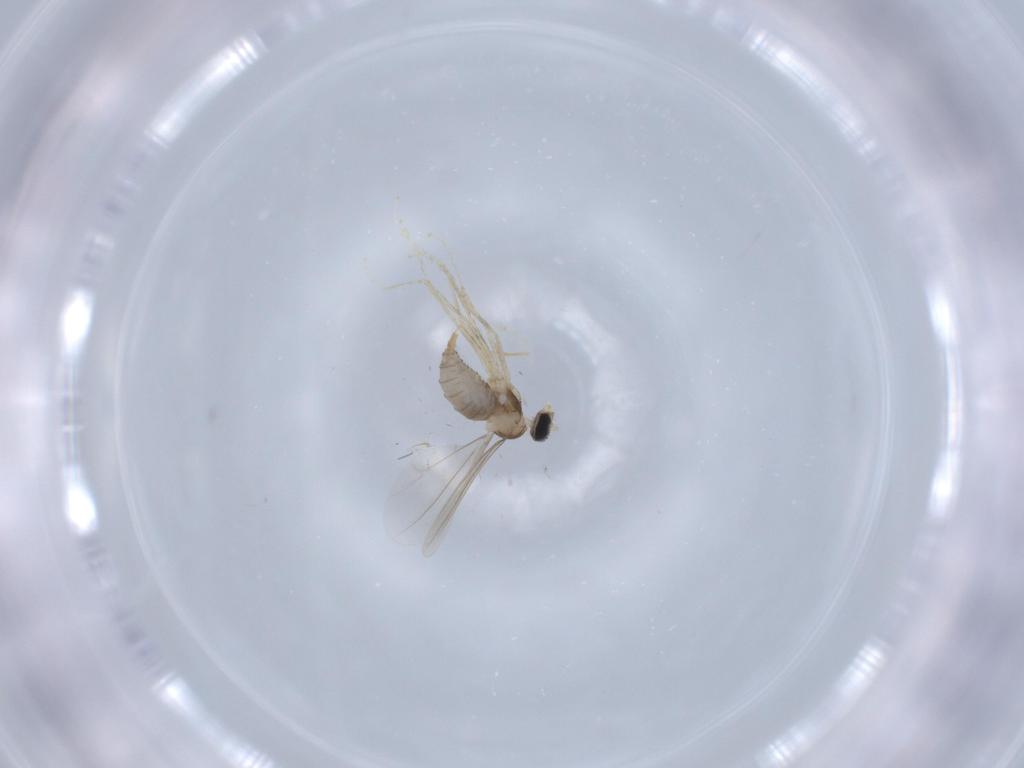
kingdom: Animalia
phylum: Arthropoda
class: Insecta
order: Diptera
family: Cecidomyiidae
